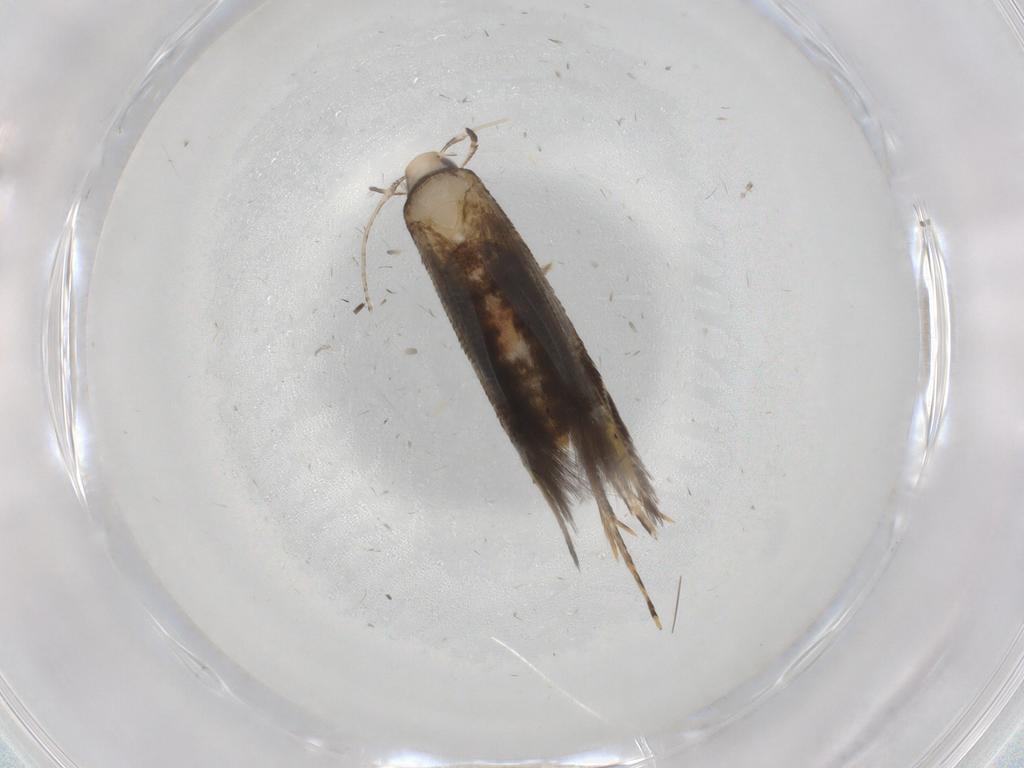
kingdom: Animalia
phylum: Arthropoda
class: Insecta
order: Lepidoptera
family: Cosmopterigidae
